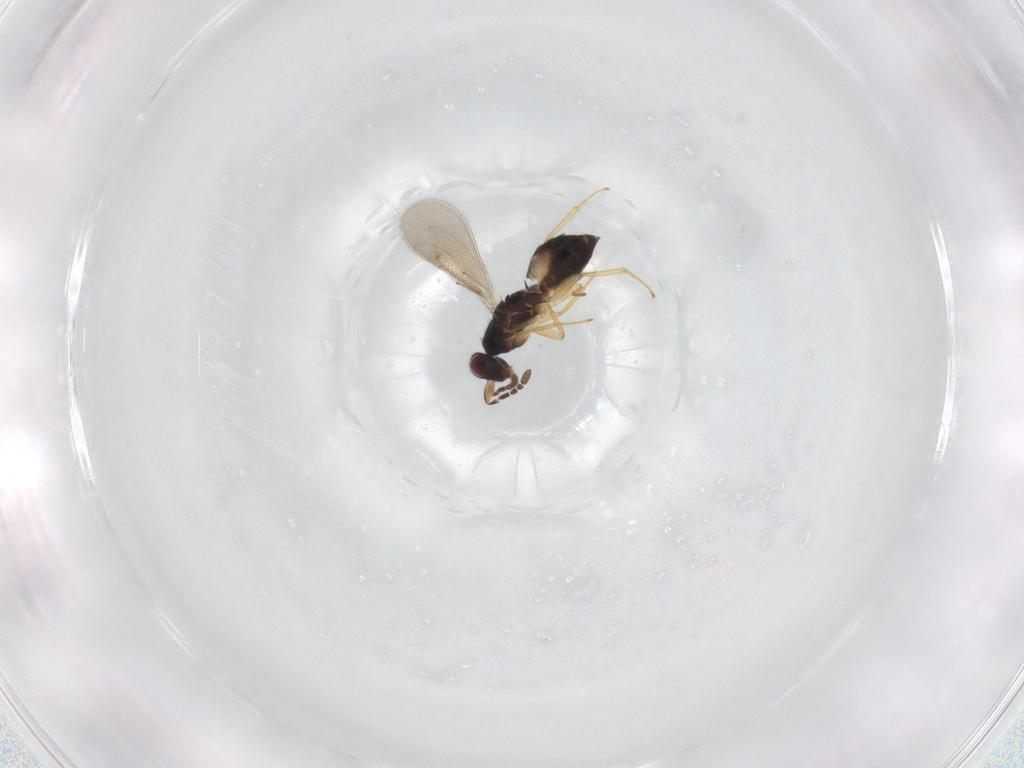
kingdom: Animalia
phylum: Arthropoda
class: Insecta
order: Hymenoptera
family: Eulophidae
